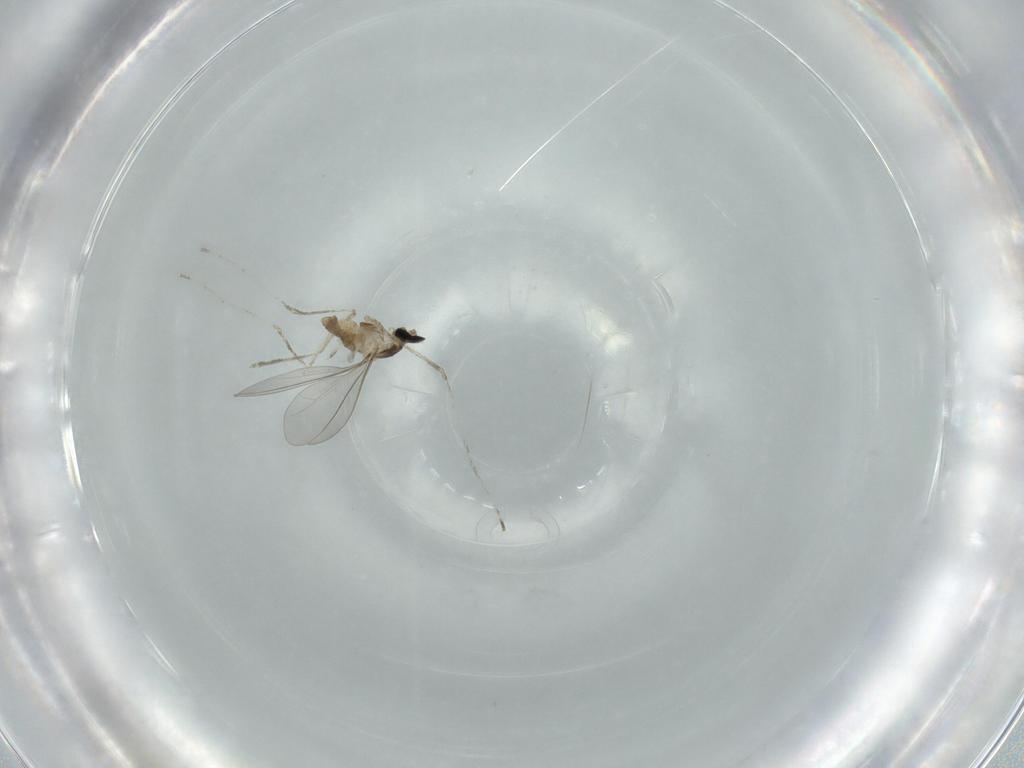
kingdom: Animalia
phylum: Arthropoda
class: Insecta
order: Diptera
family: Cecidomyiidae
